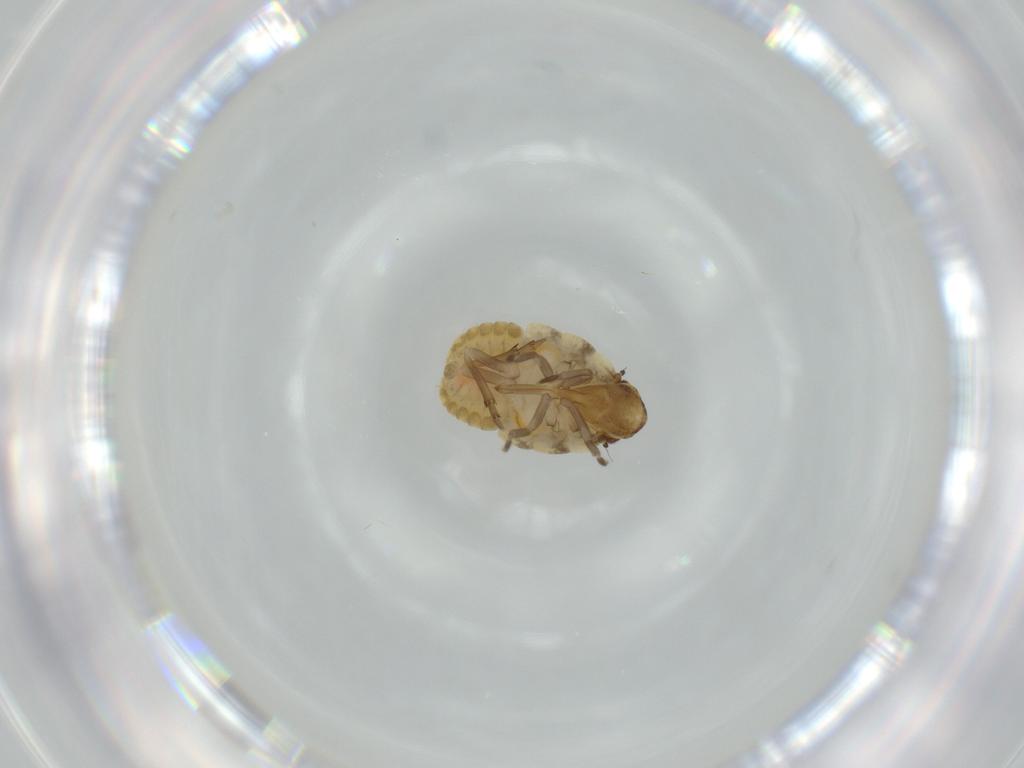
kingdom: Animalia
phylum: Arthropoda
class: Insecta
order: Hemiptera
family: Flatidae
